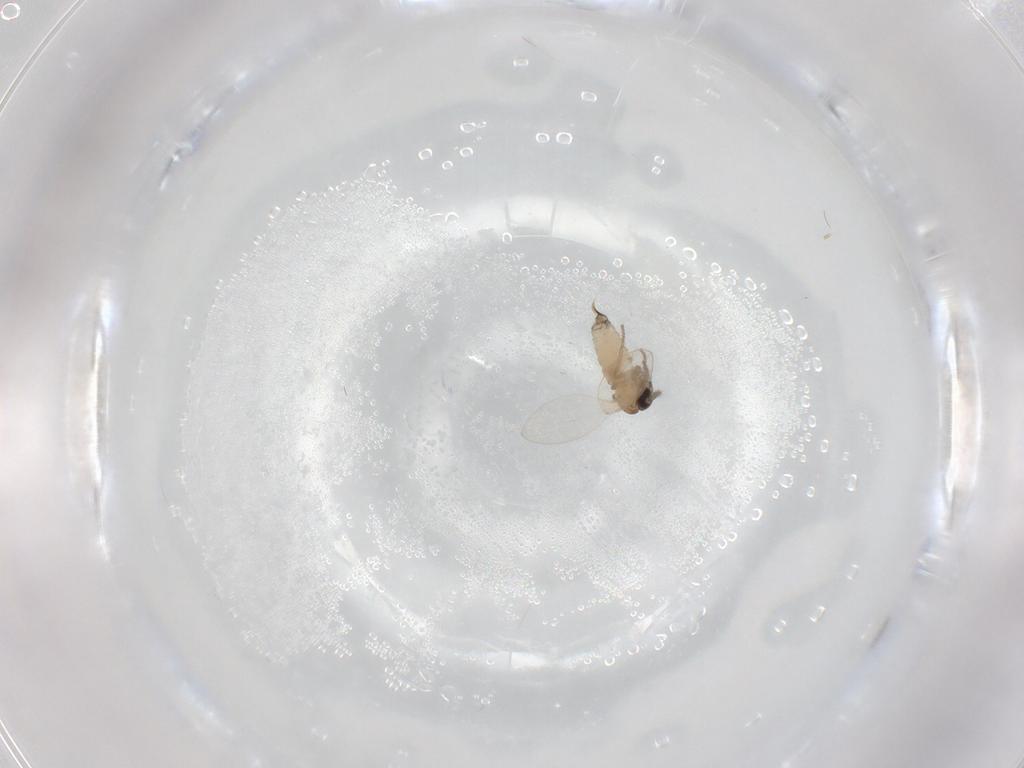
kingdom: Animalia
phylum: Arthropoda
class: Insecta
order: Diptera
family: Psychodidae
